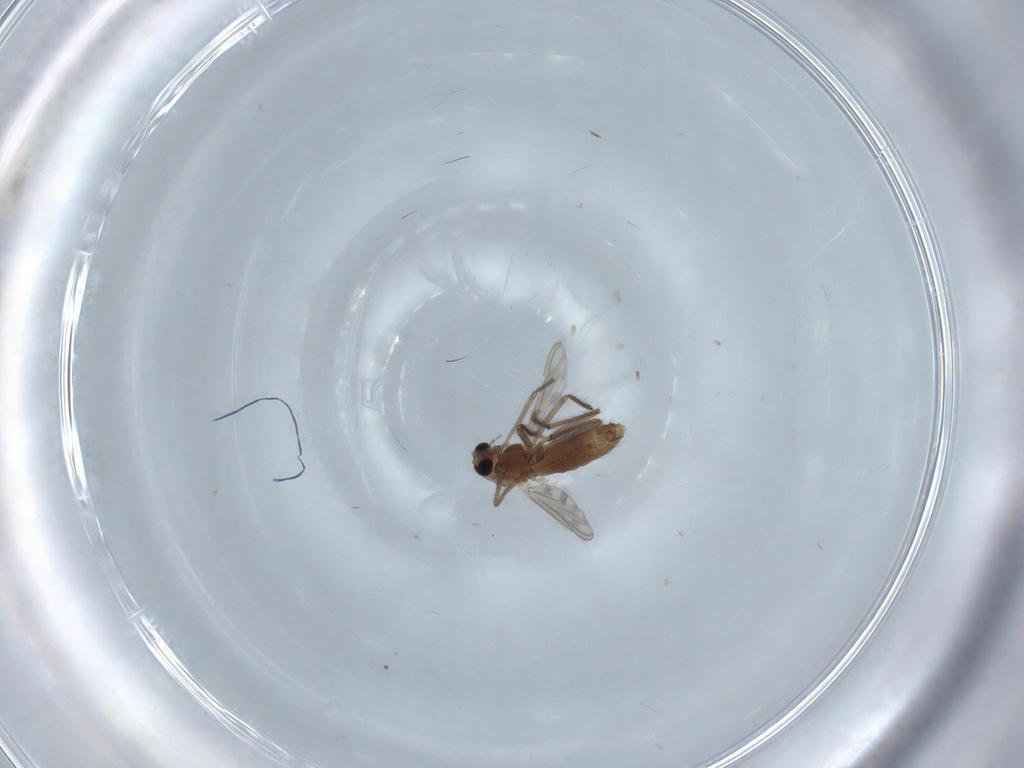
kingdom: Animalia
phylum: Arthropoda
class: Insecta
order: Diptera
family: Chironomidae
